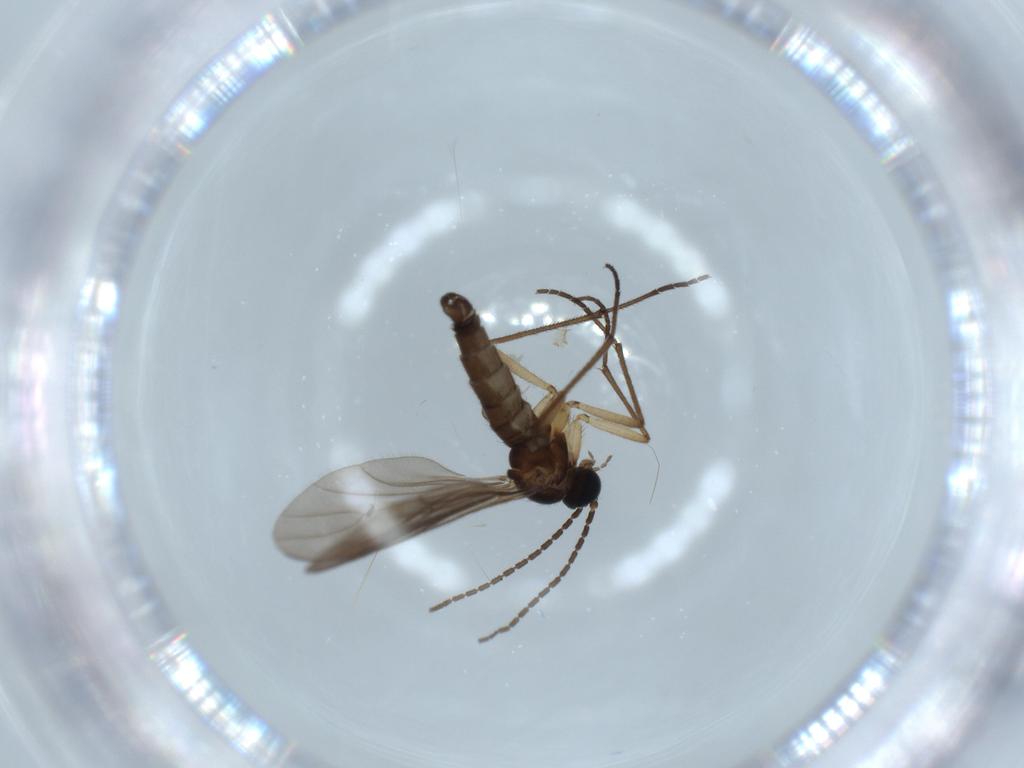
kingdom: Animalia
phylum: Arthropoda
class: Insecta
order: Diptera
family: Sciaridae
